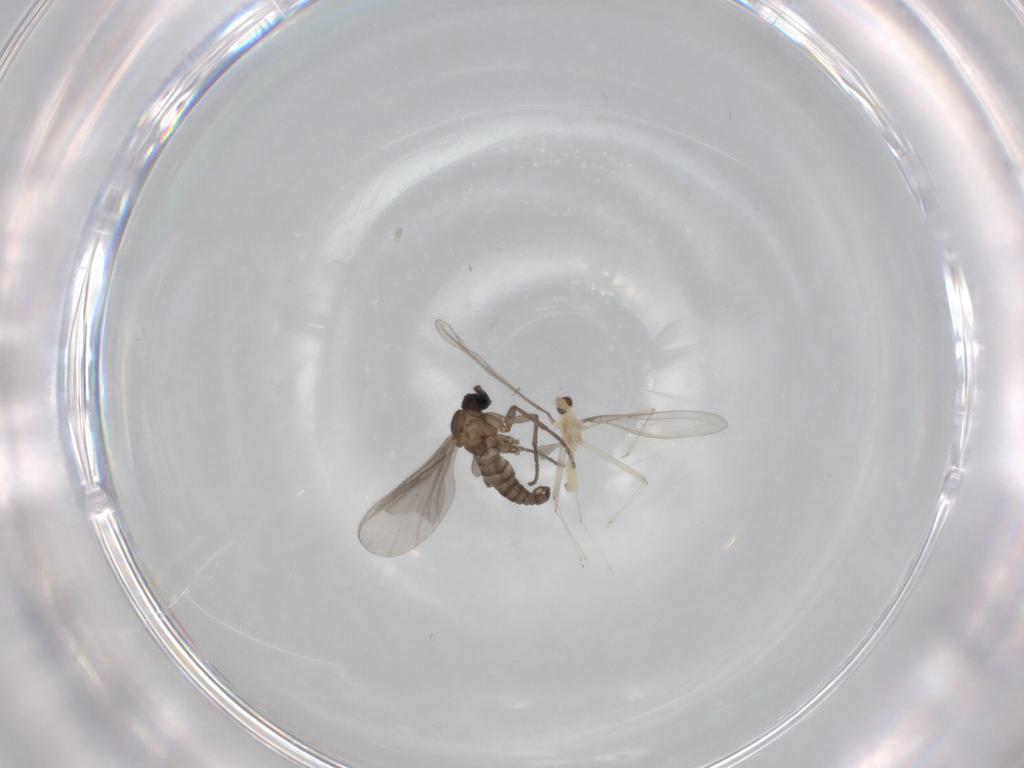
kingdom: Animalia
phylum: Arthropoda
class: Insecta
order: Diptera
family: Sciaridae
